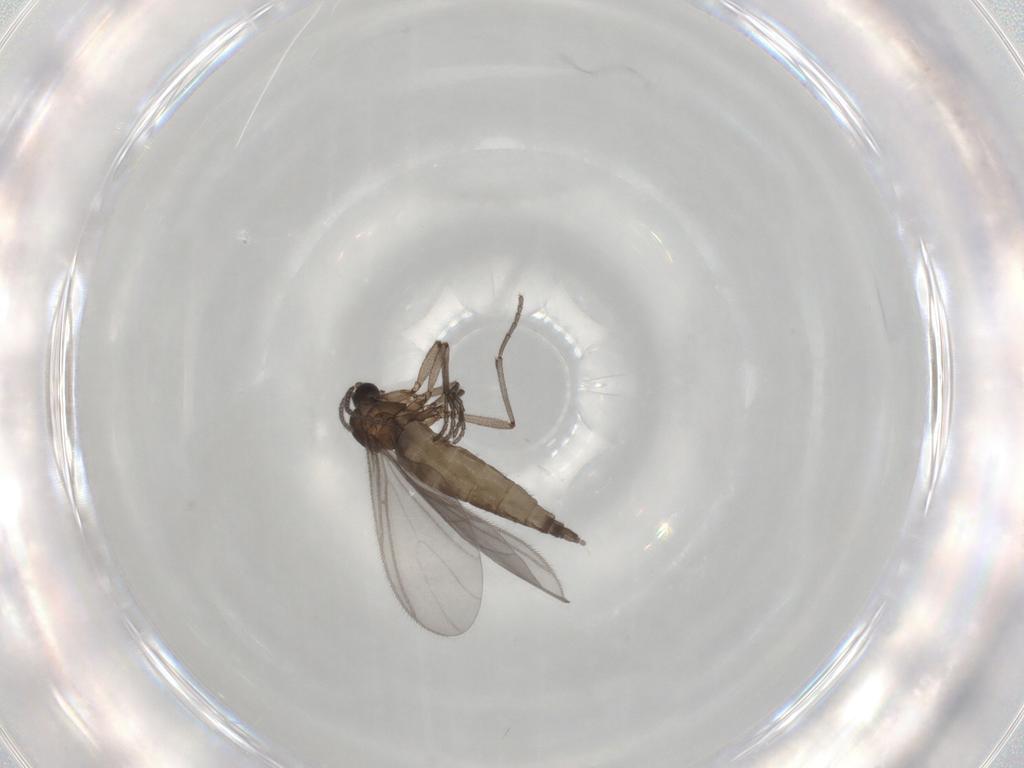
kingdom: Animalia
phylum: Arthropoda
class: Insecta
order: Diptera
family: Sciaridae
